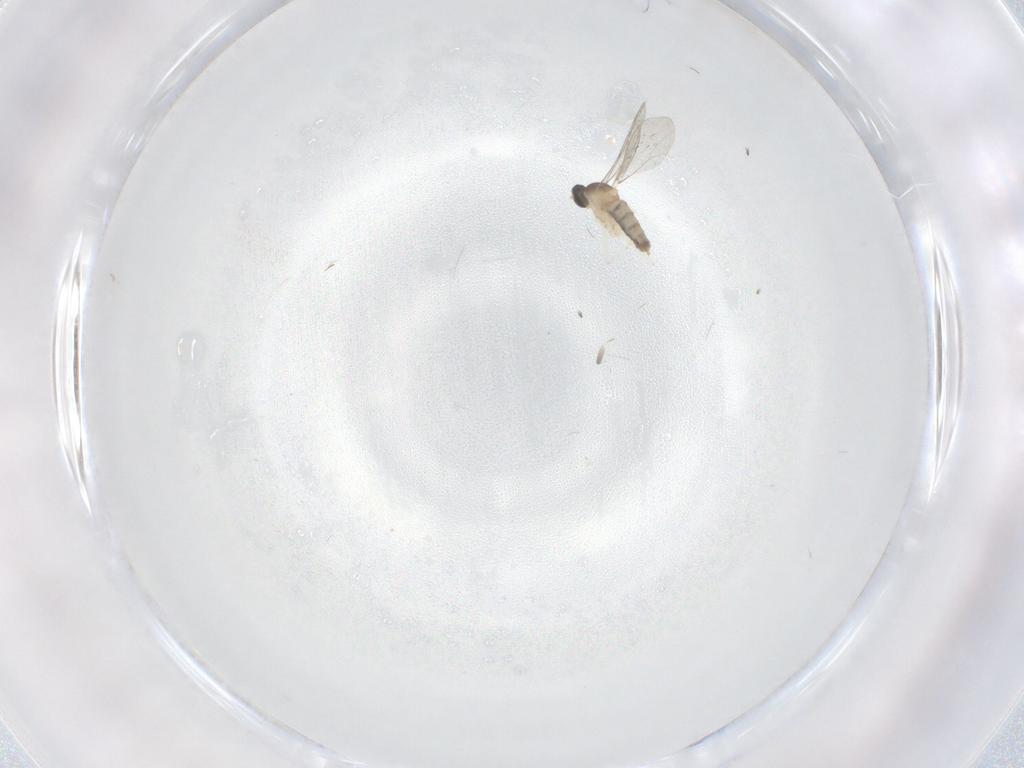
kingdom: Animalia
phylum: Arthropoda
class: Insecta
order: Diptera
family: Cecidomyiidae
